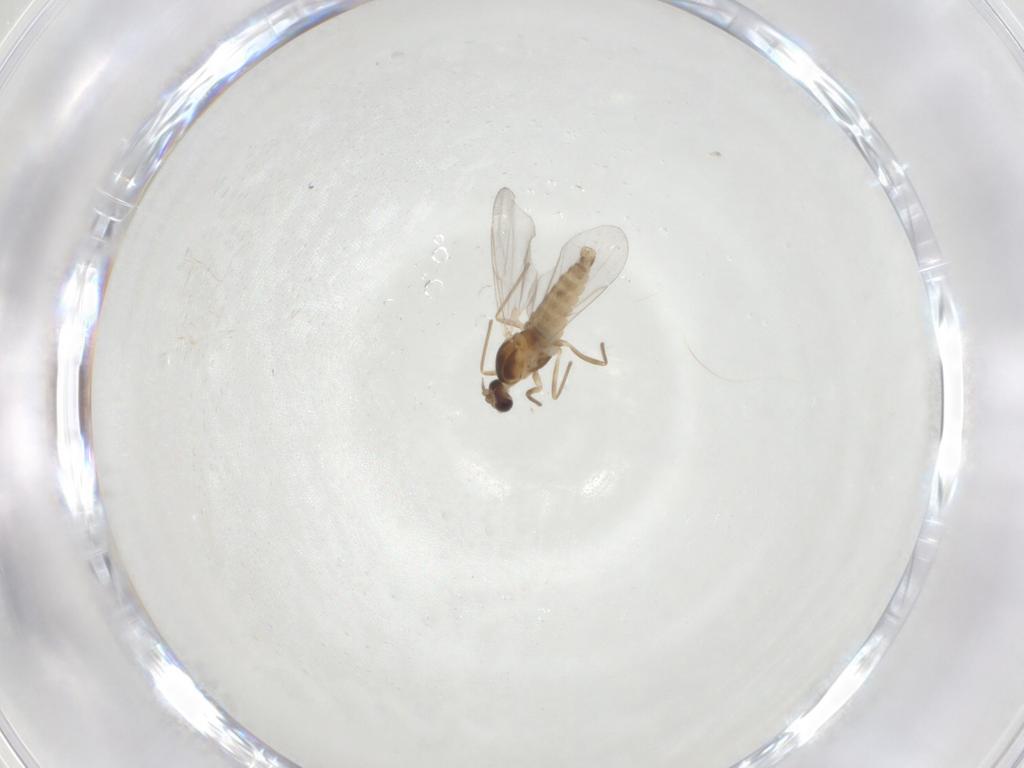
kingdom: Animalia
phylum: Arthropoda
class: Insecta
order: Diptera
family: Cecidomyiidae
